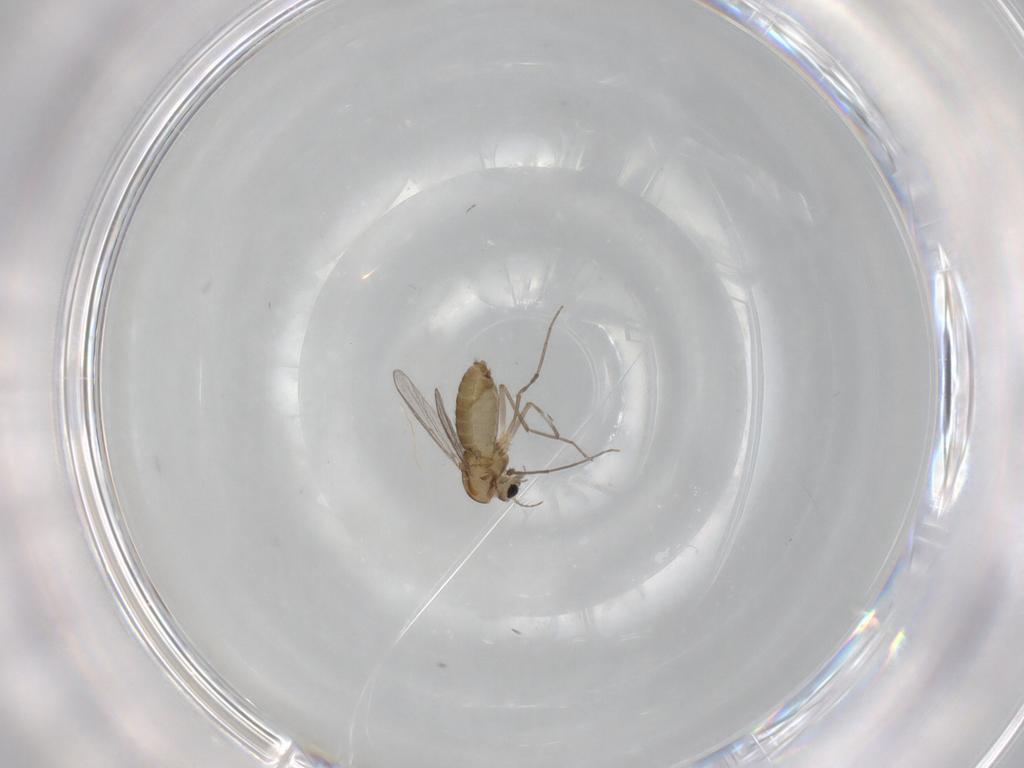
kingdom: Animalia
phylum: Arthropoda
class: Insecta
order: Diptera
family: Chironomidae
